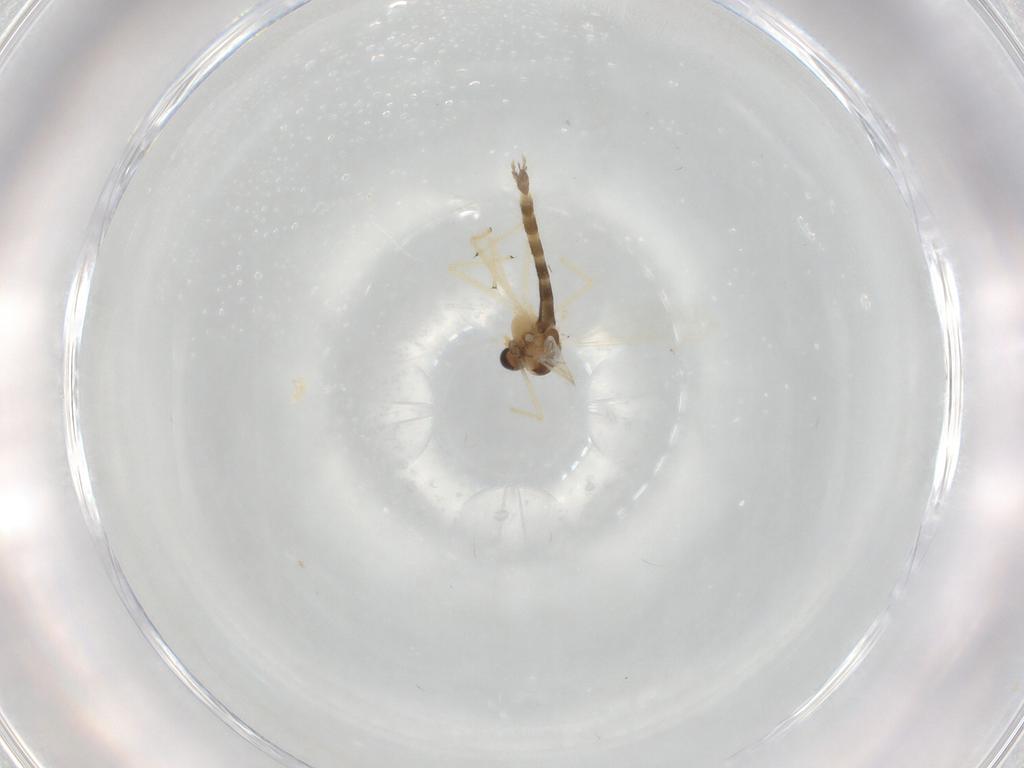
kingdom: Animalia
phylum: Arthropoda
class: Insecta
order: Diptera
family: Chironomidae
